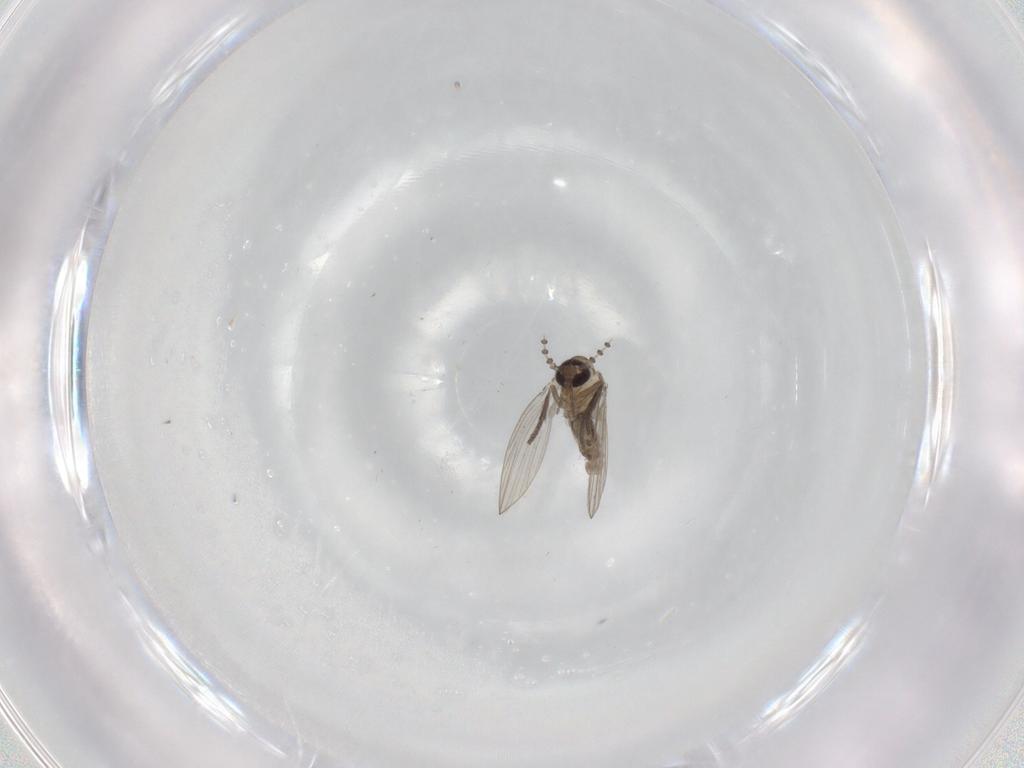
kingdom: Animalia
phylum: Arthropoda
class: Insecta
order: Diptera
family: Psychodidae
